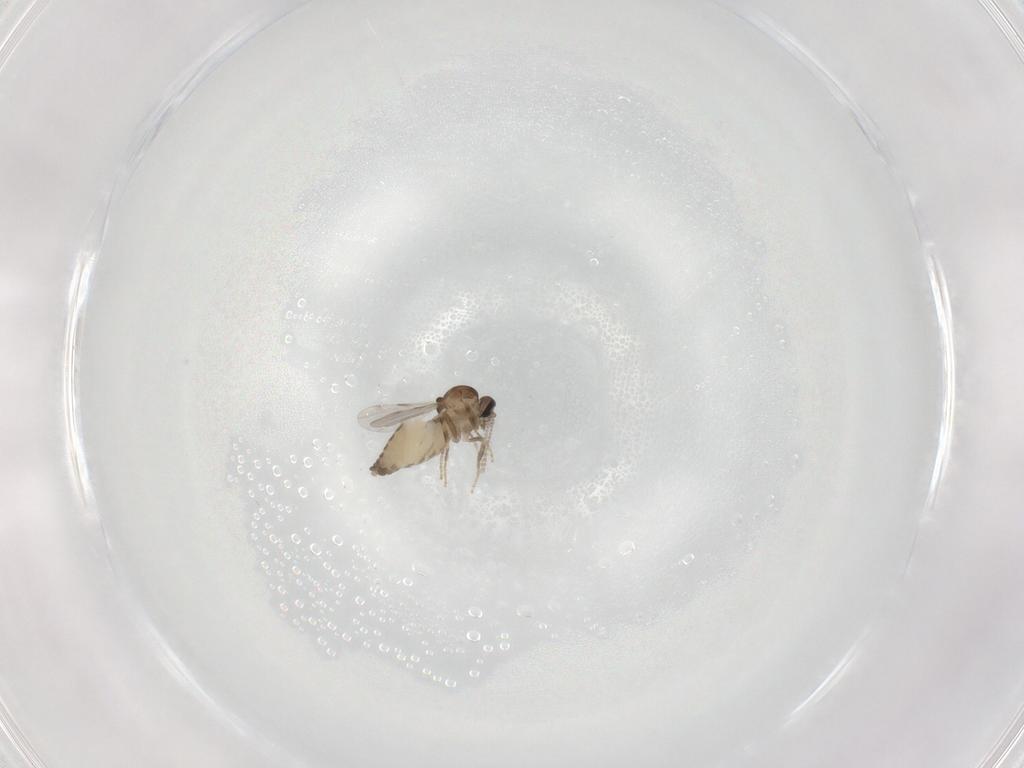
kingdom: Animalia
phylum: Arthropoda
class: Insecta
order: Diptera
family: Ceratopogonidae
